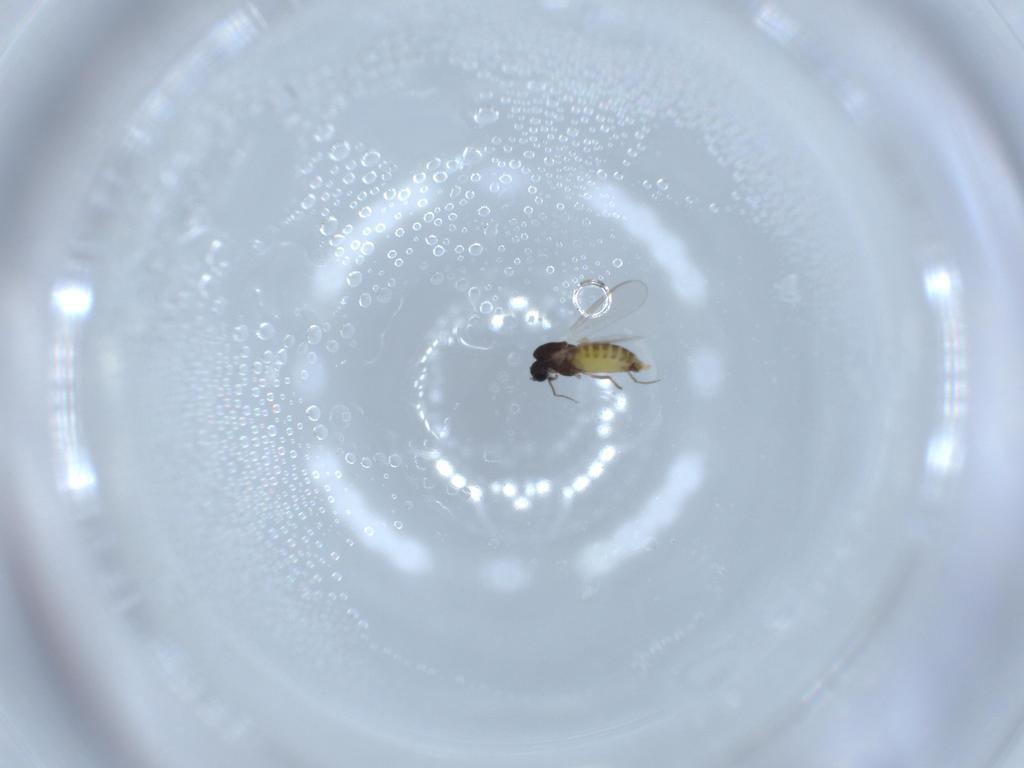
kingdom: Animalia
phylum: Arthropoda
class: Insecta
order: Diptera
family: Chironomidae
